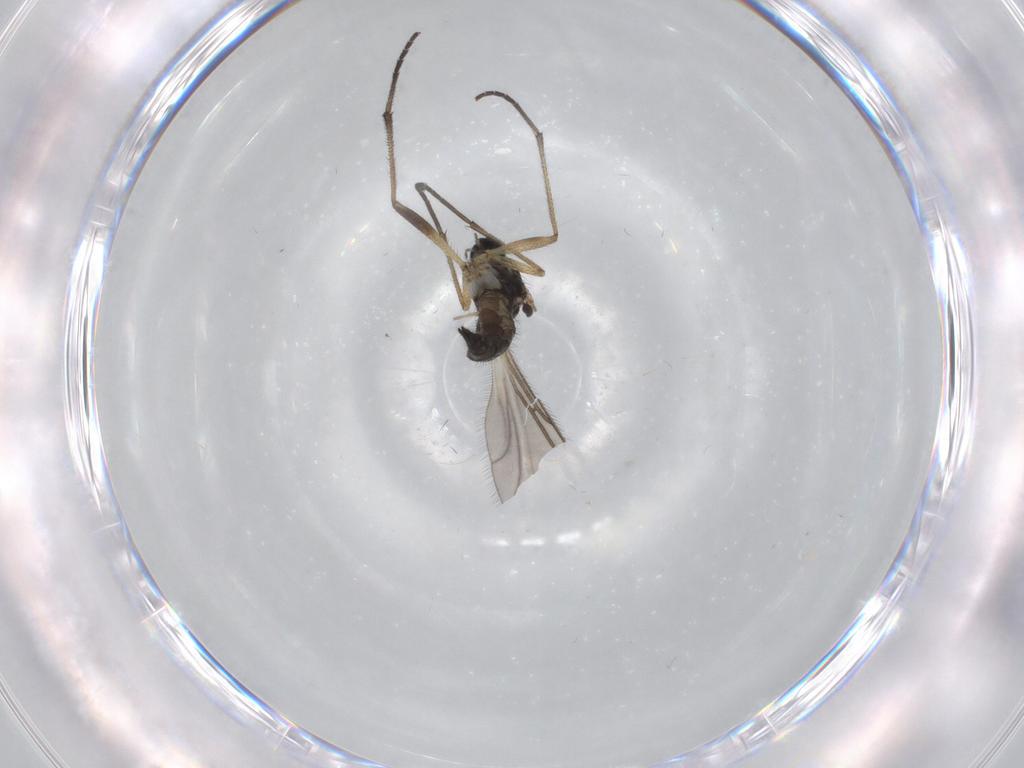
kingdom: Animalia
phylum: Arthropoda
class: Insecta
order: Diptera
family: Sciaridae
